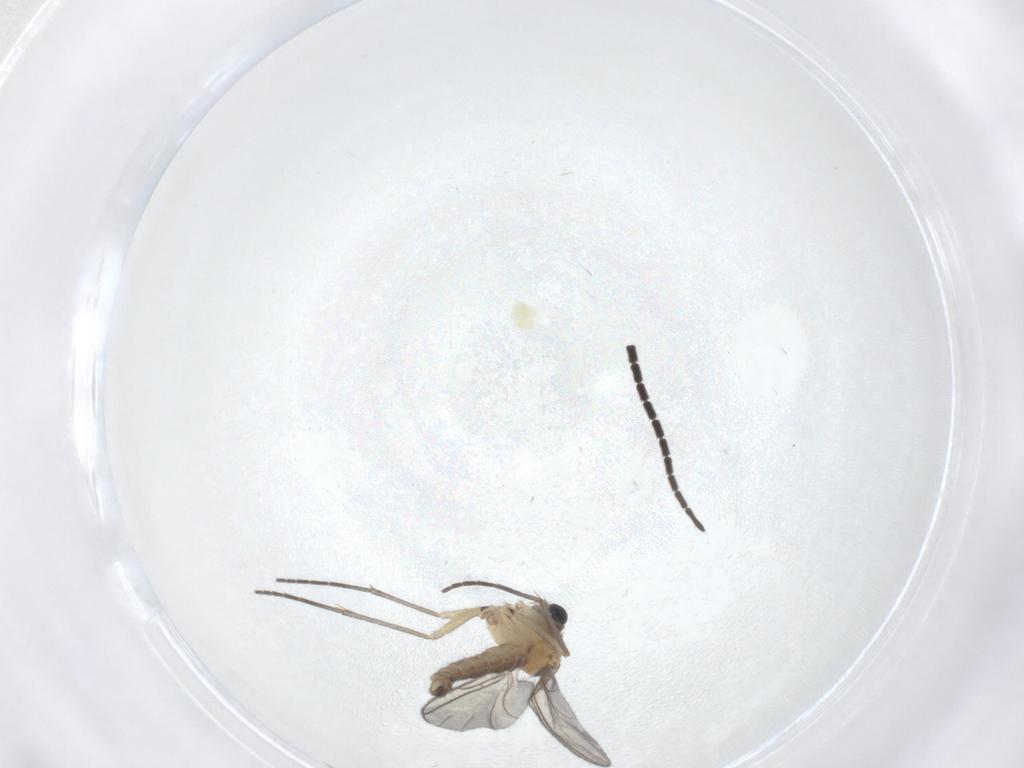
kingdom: Animalia
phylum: Arthropoda
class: Insecta
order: Diptera
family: Sciaridae
